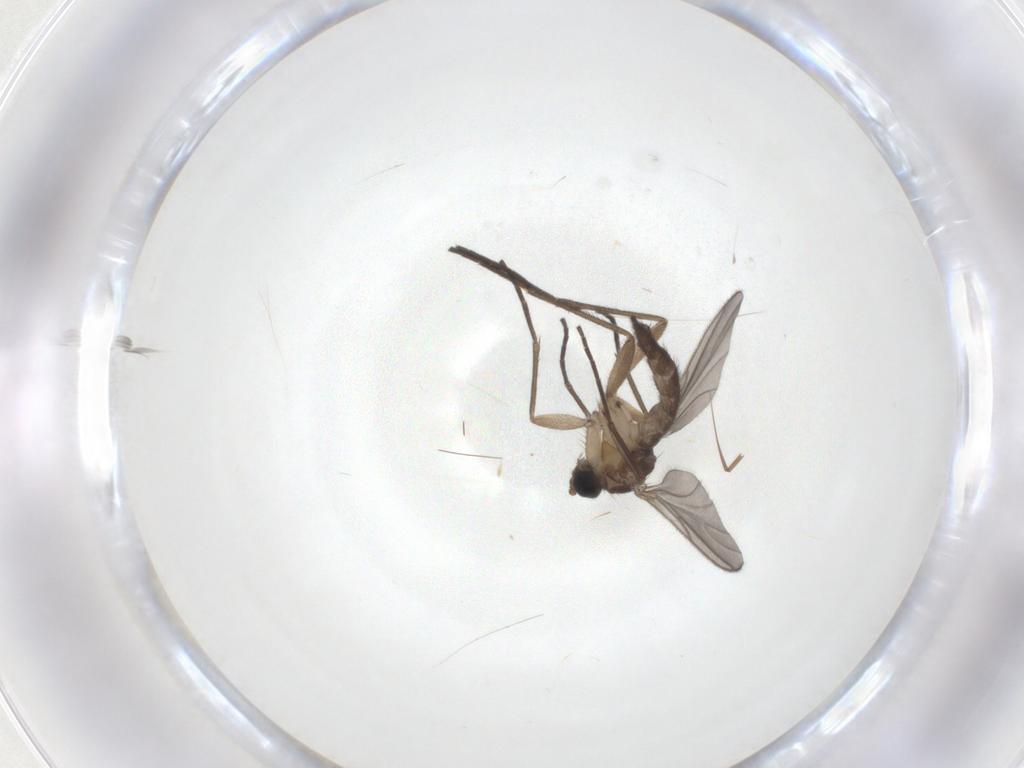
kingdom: Animalia
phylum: Arthropoda
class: Insecta
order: Diptera
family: Sciaridae
